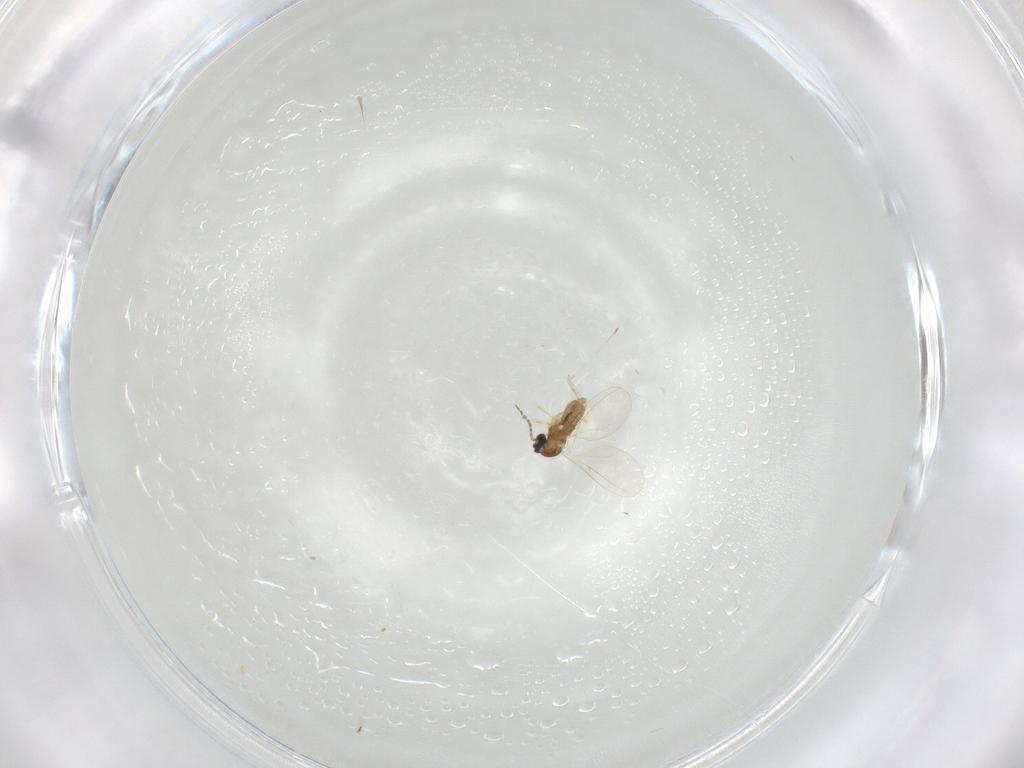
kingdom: Animalia
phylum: Arthropoda
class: Insecta
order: Diptera
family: Cecidomyiidae
